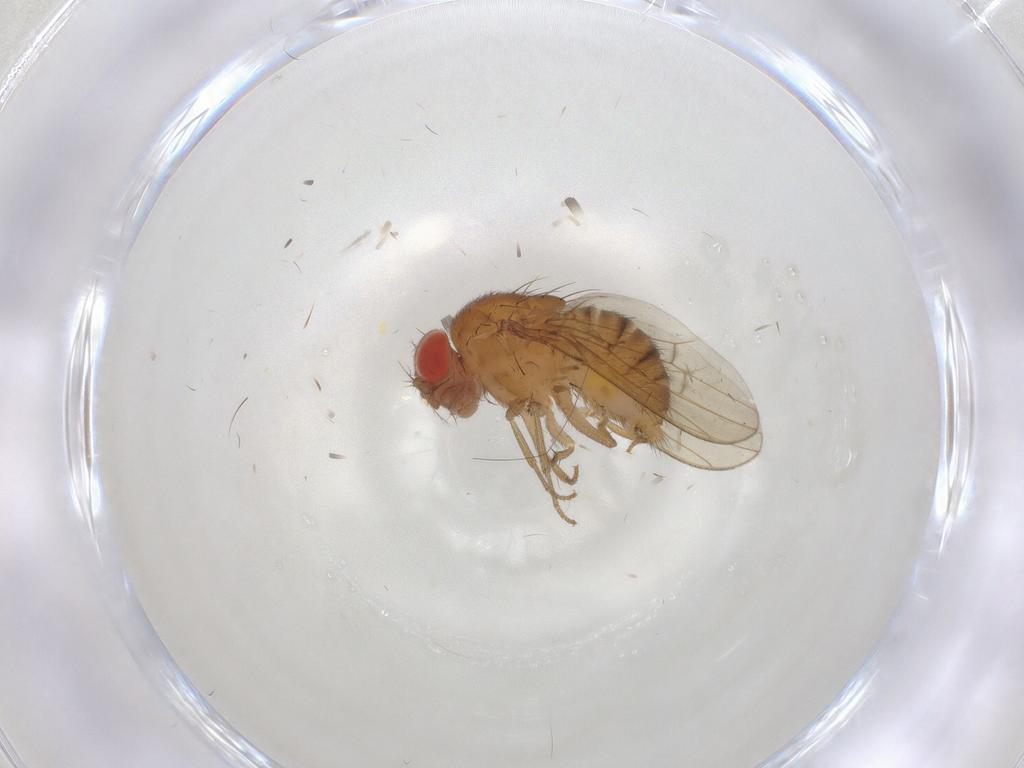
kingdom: Animalia
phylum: Arthropoda
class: Insecta
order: Diptera
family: Drosophilidae
